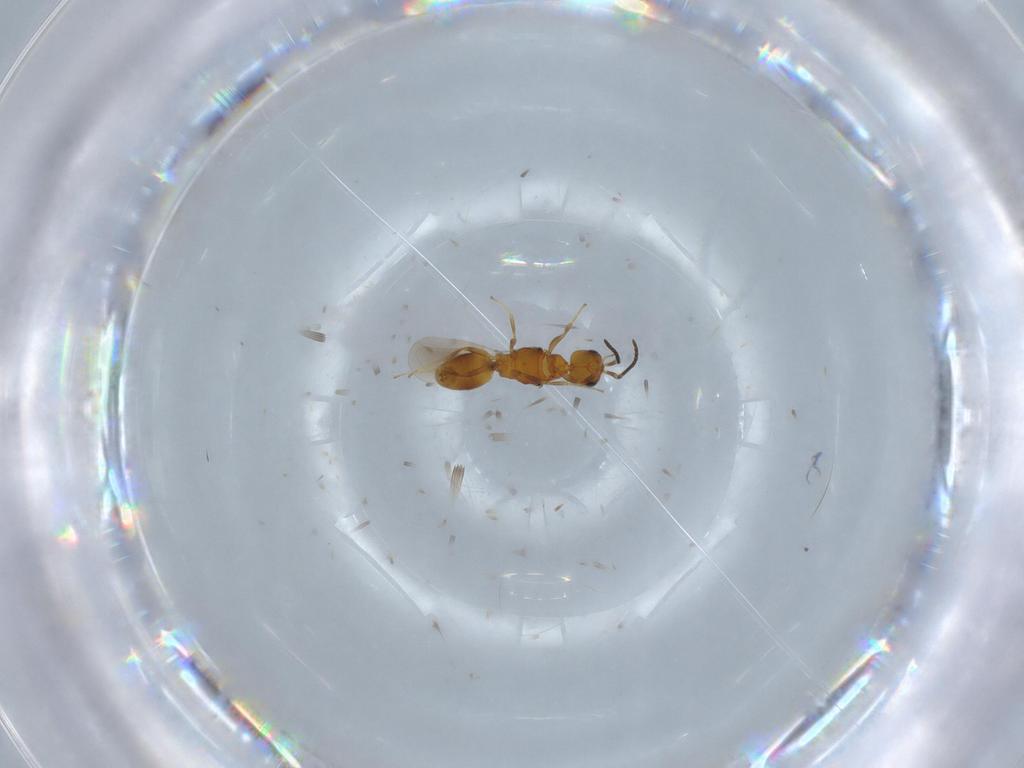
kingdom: Animalia
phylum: Arthropoda
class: Insecta
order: Hymenoptera
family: Bethylidae
